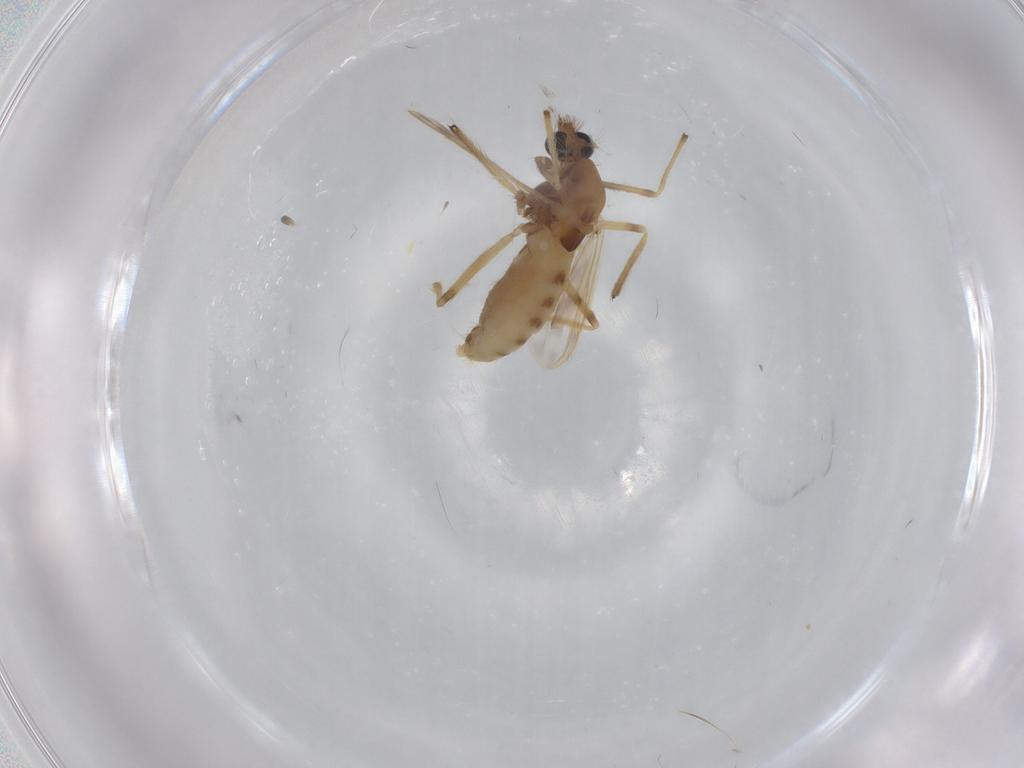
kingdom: Animalia
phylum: Arthropoda
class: Insecta
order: Diptera
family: Chironomidae
